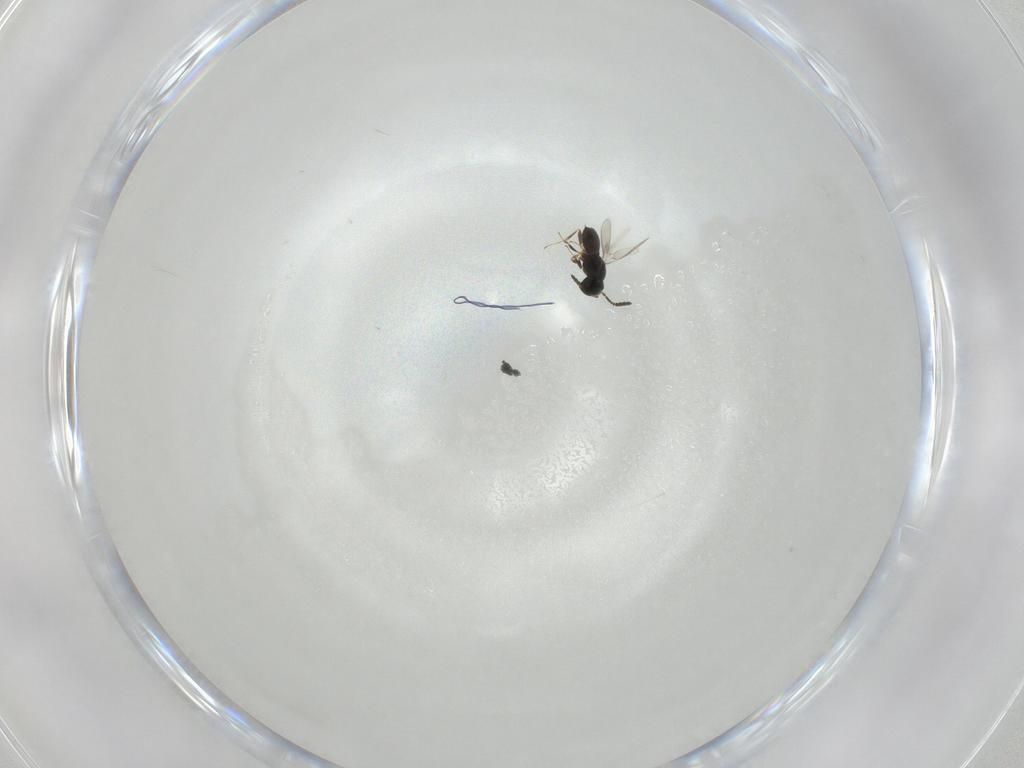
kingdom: Animalia
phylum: Arthropoda
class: Insecta
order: Hymenoptera
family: Scelionidae
